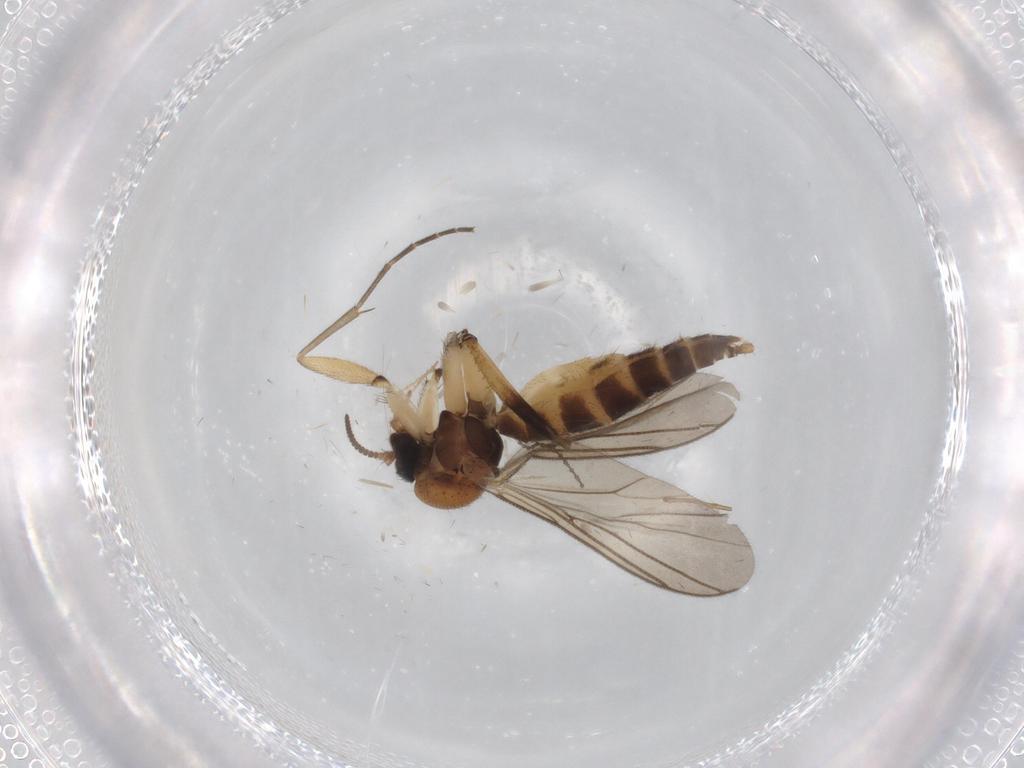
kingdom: Animalia
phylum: Arthropoda
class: Insecta
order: Diptera
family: Mycetophilidae
